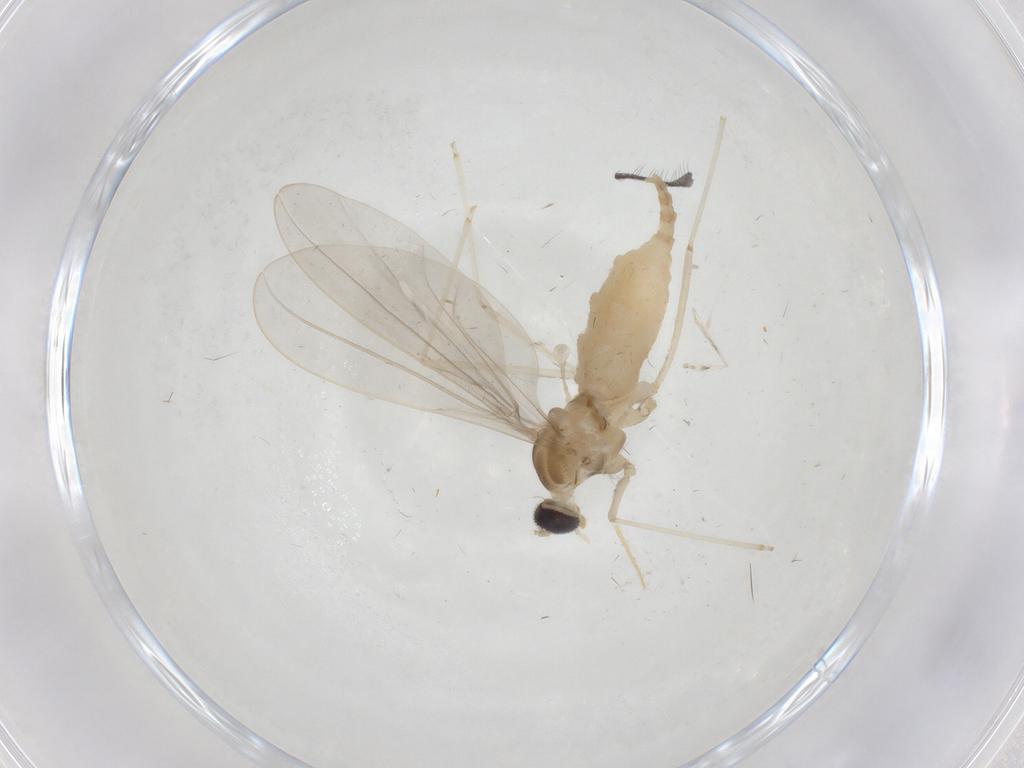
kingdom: Animalia
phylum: Arthropoda
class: Insecta
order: Diptera
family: Cecidomyiidae
